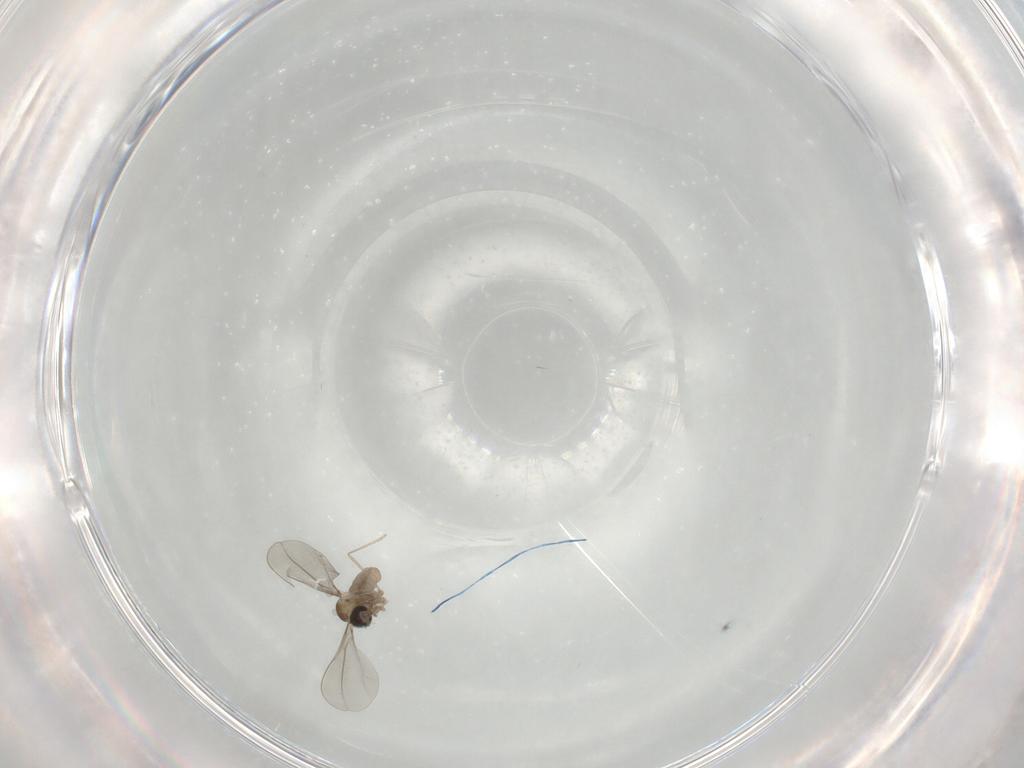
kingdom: Animalia
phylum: Arthropoda
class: Insecta
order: Diptera
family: Cecidomyiidae
